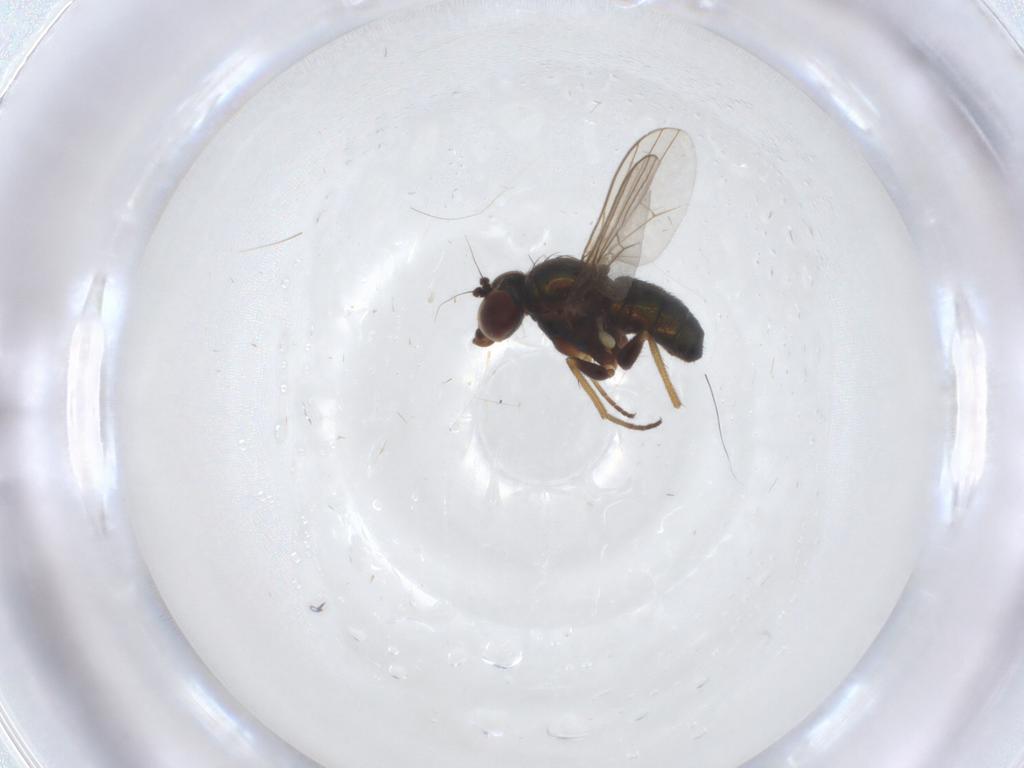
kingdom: Animalia
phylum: Arthropoda
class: Insecta
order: Diptera
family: Dolichopodidae
